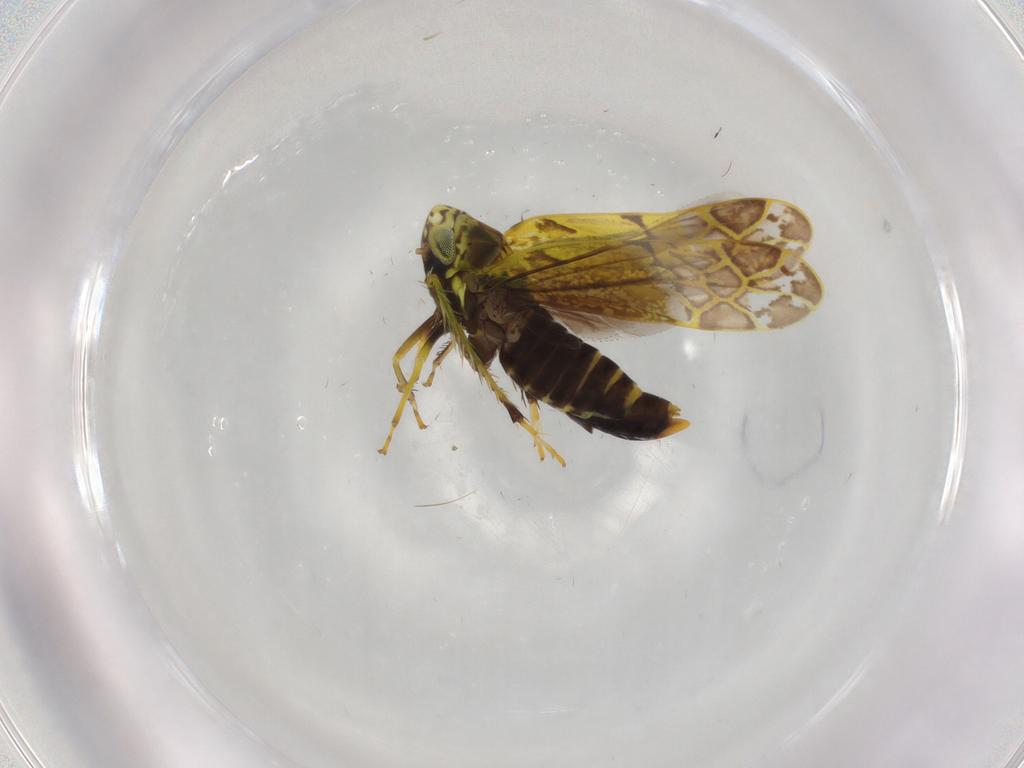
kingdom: Animalia
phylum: Arthropoda
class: Insecta
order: Hemiptera
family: Cicadellidae
